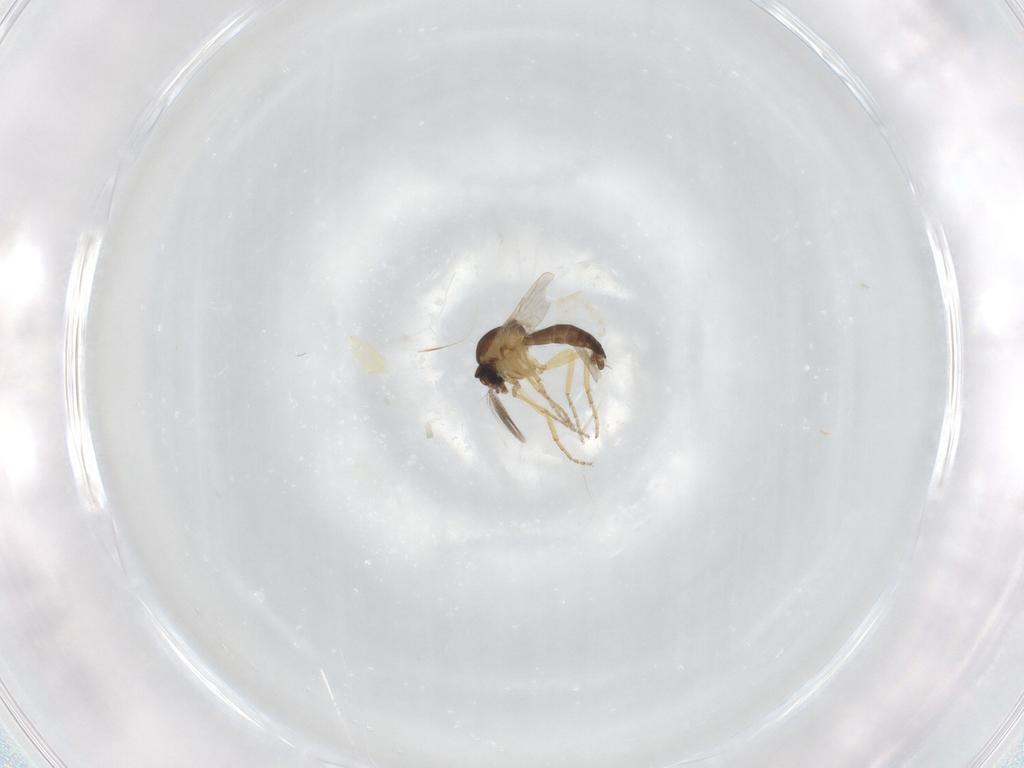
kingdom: Animalia
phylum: Arthropoda
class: Insecta
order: Diptera
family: Ceratopogonidae
